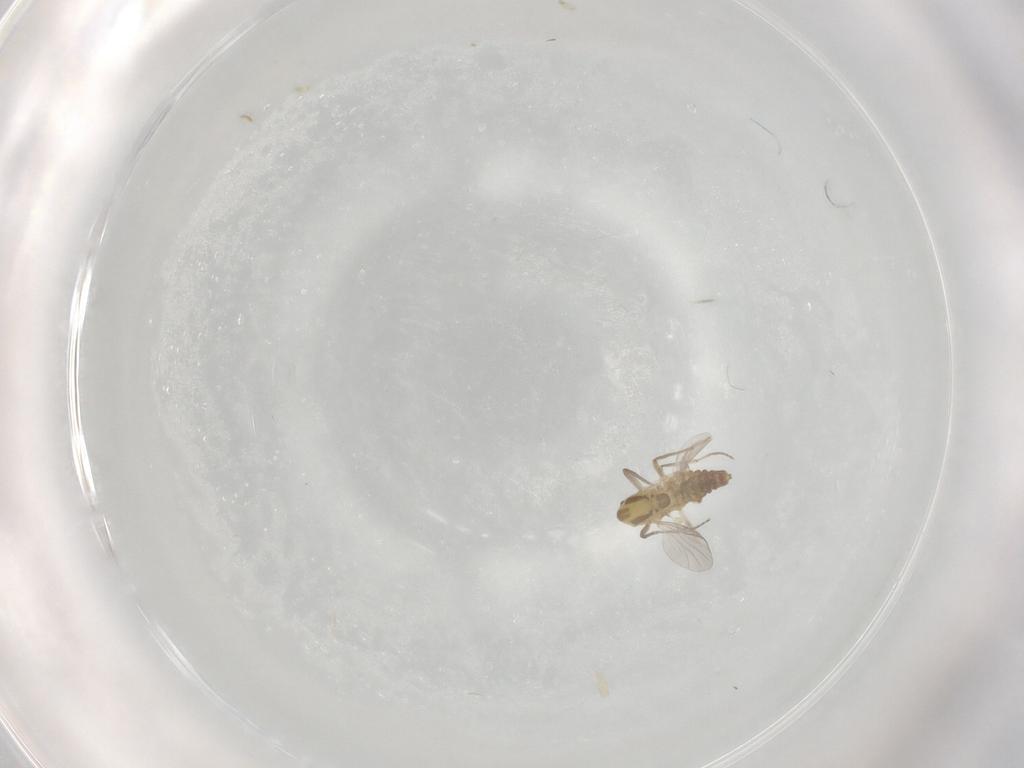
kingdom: Animalia
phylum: Arthropoda
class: Insecta
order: Diptera
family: Chironomidae
